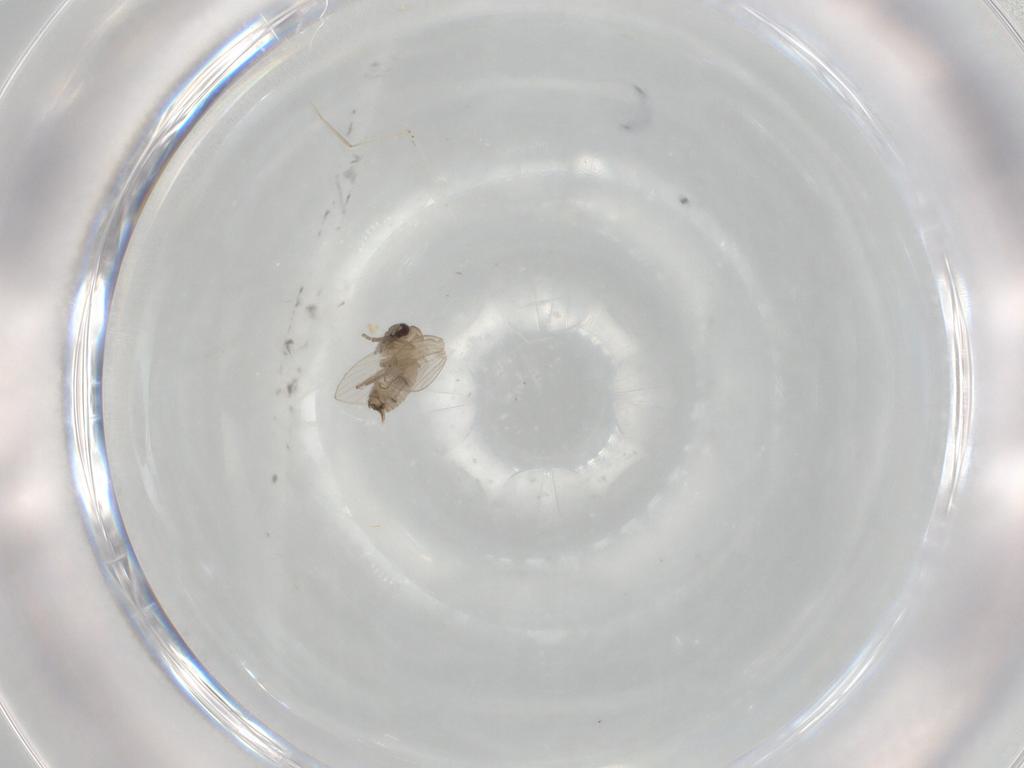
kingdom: Animalia
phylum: Arthropoda
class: Insecta
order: Diptera
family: Psychodidae
